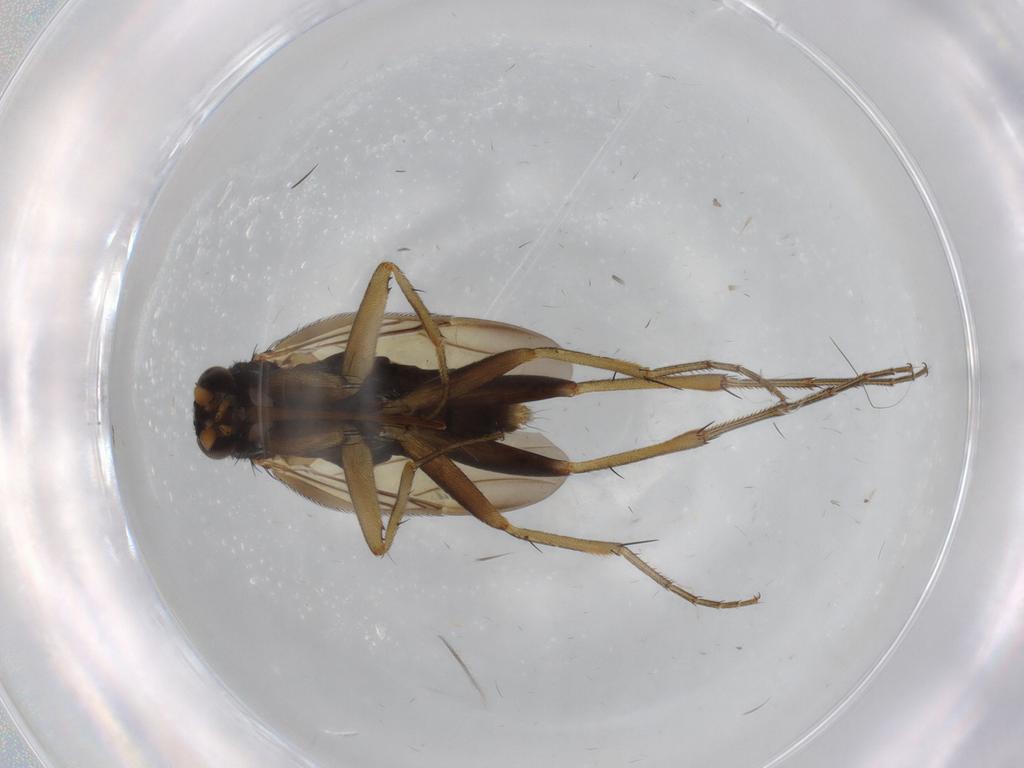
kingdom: Animalia
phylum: Arthropoda
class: Insecta
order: Diptera
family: Phoridae
